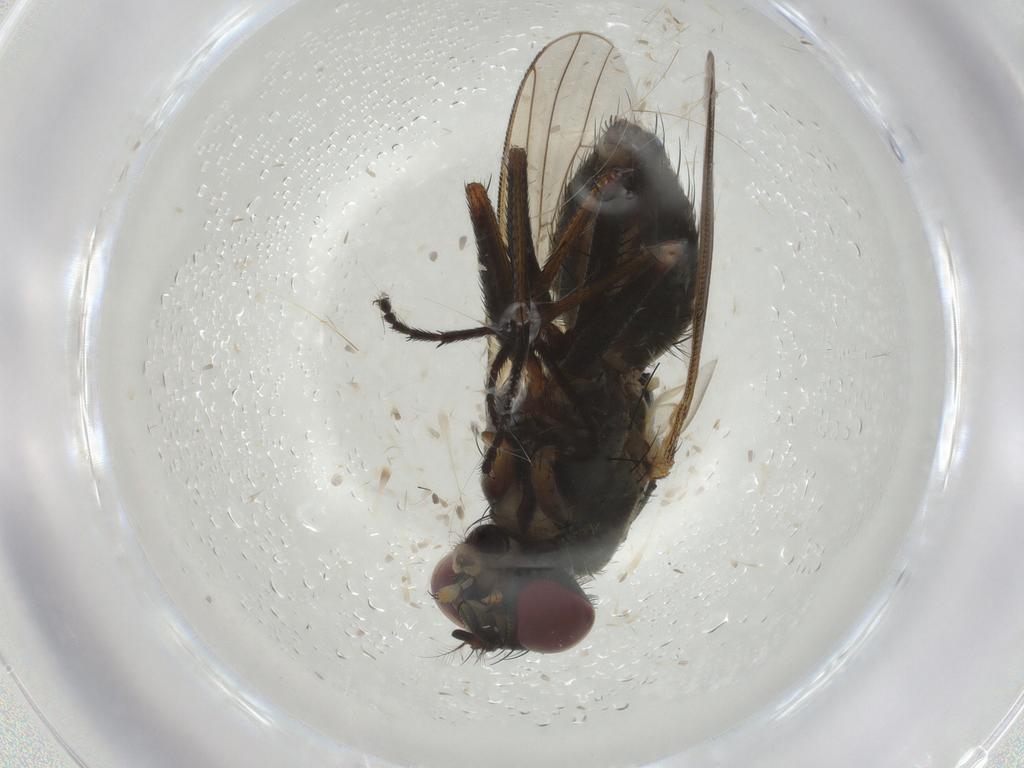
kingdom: Animalia
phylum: Arthropoda
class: Insecta
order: Diptera
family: Muscidae
